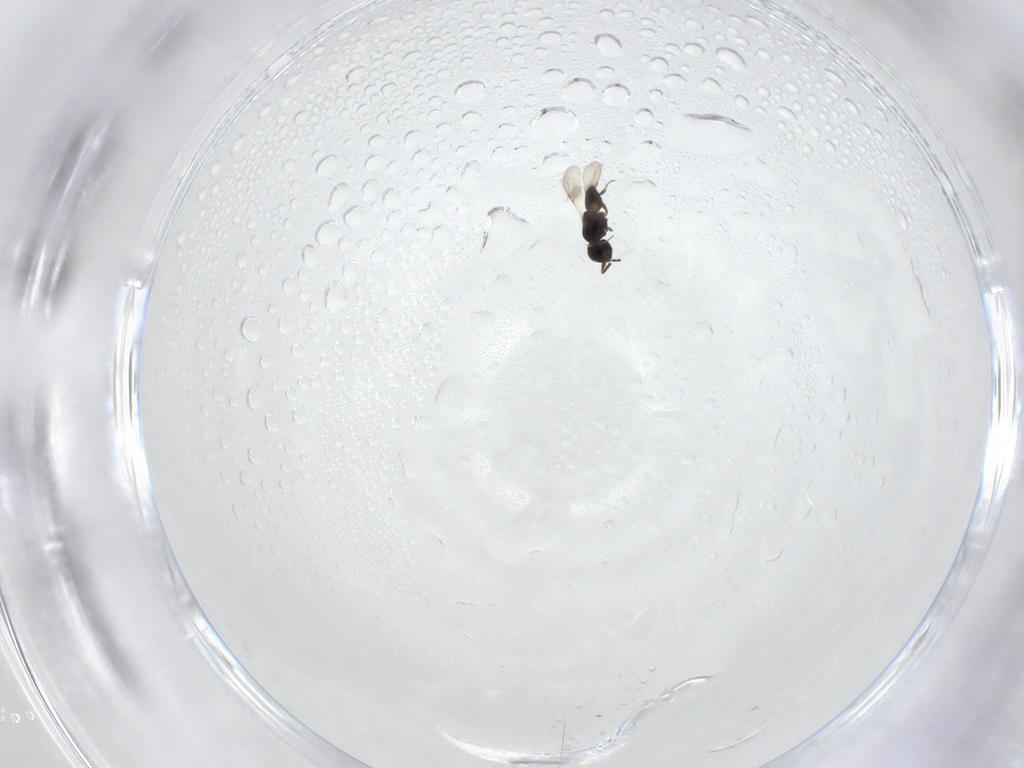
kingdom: Animalia
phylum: Arthropoda
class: Insecta
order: Hymenoptera
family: Ceraphronidae
